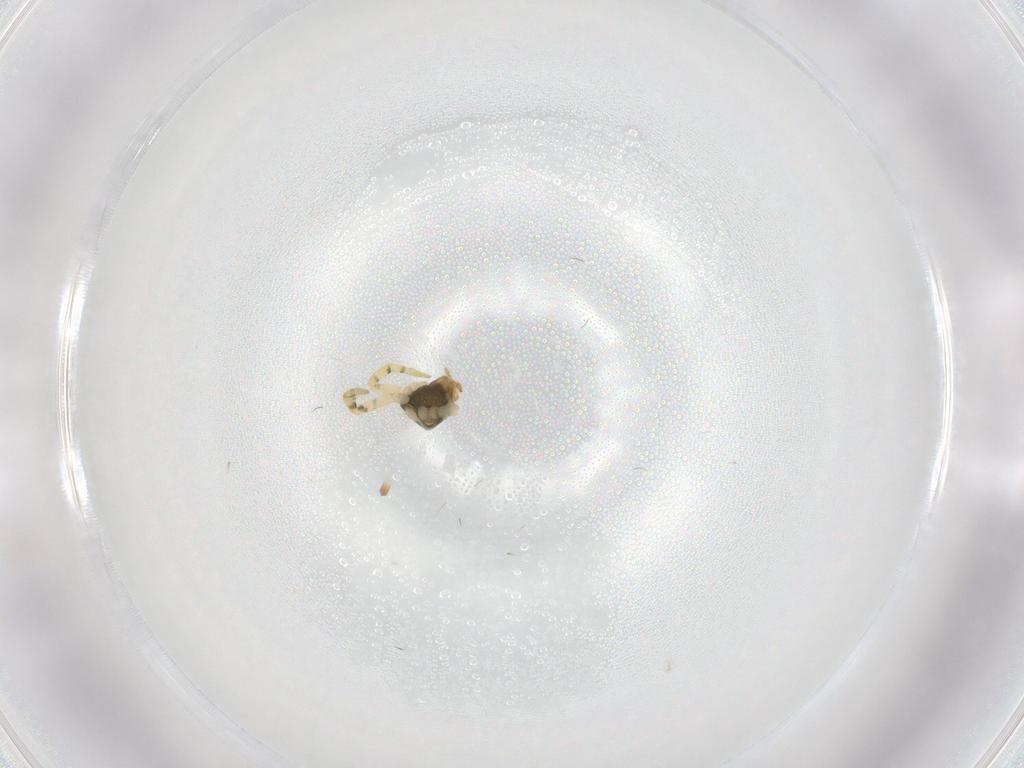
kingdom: Animalia
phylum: Arthropoda
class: Arachnida
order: Araneae
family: Theridiidae
